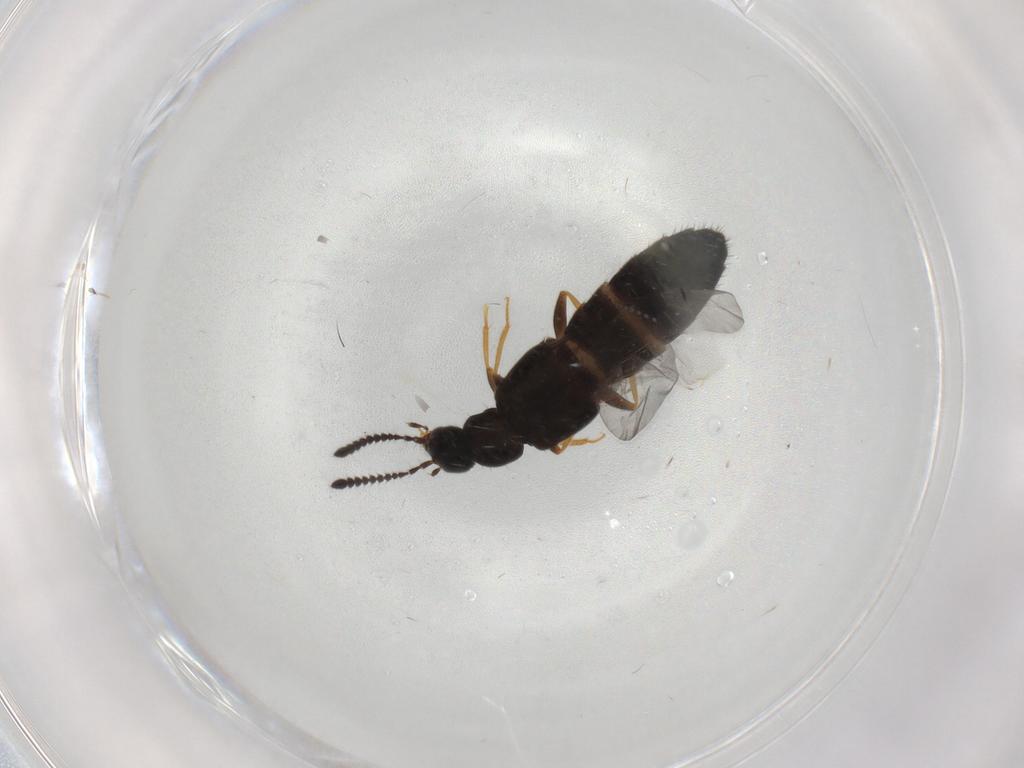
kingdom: Animalia
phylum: Arthropoda
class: Insecta
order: Coleoptera
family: Staphylinidae
